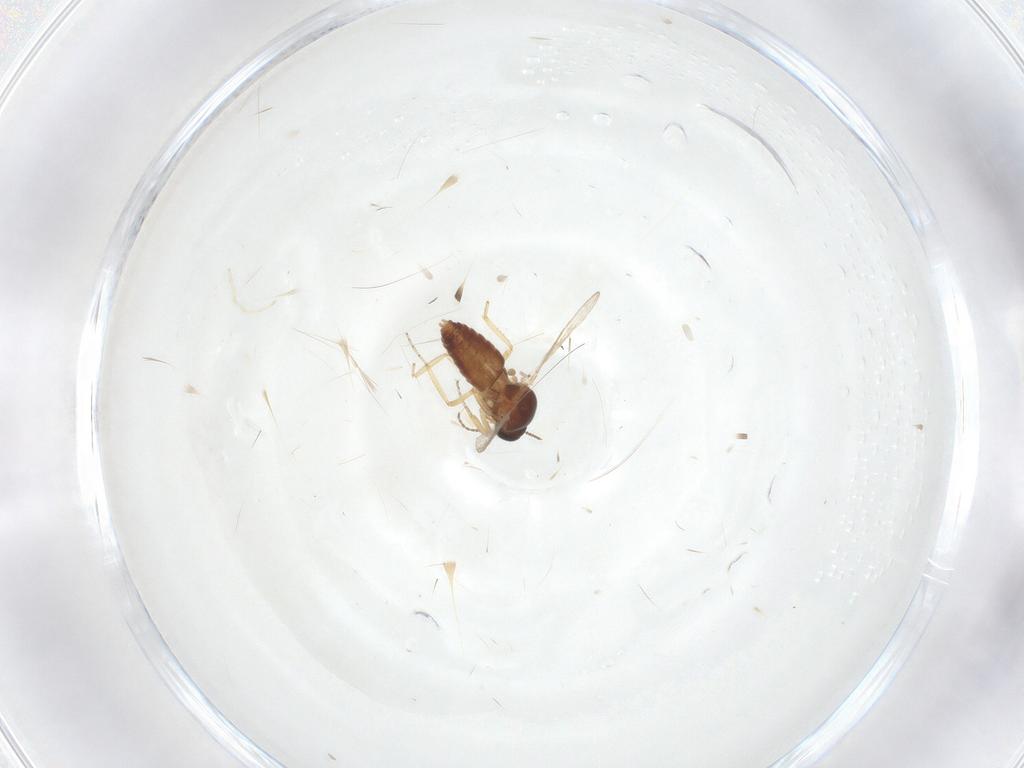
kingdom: Animalia
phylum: Arthropoda
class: Insecta
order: Diptera
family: Ceratopogonidae
